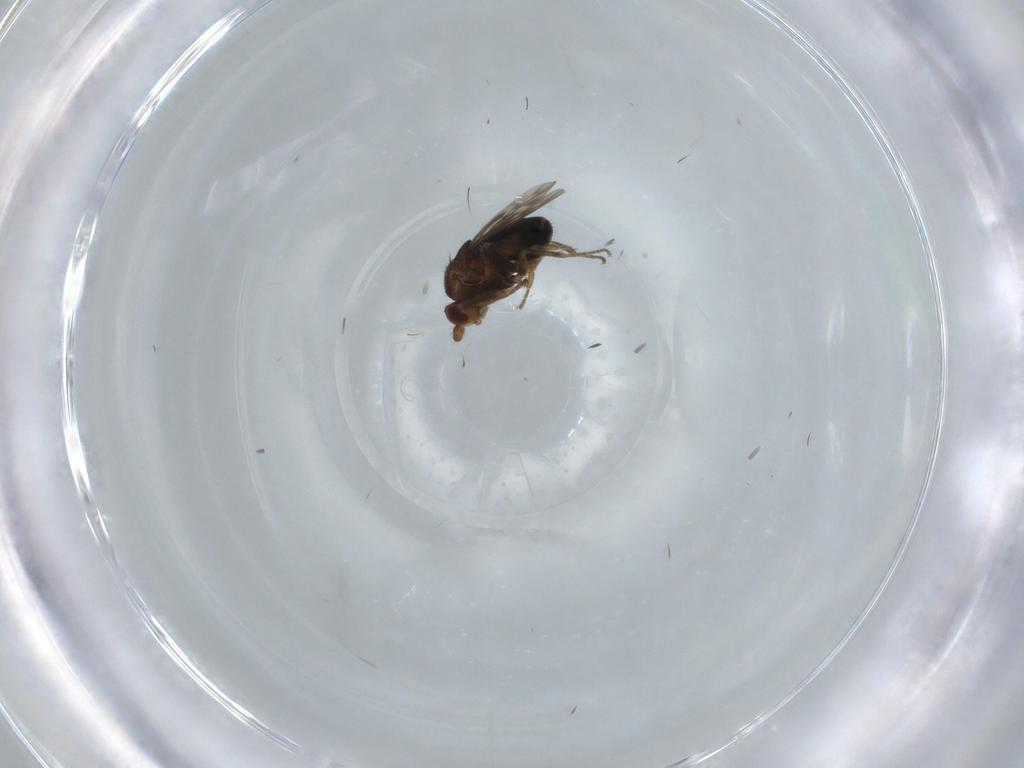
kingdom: Animalia
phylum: Arthropoda
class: Insecta
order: Diptera
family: Sphaeroceridae
